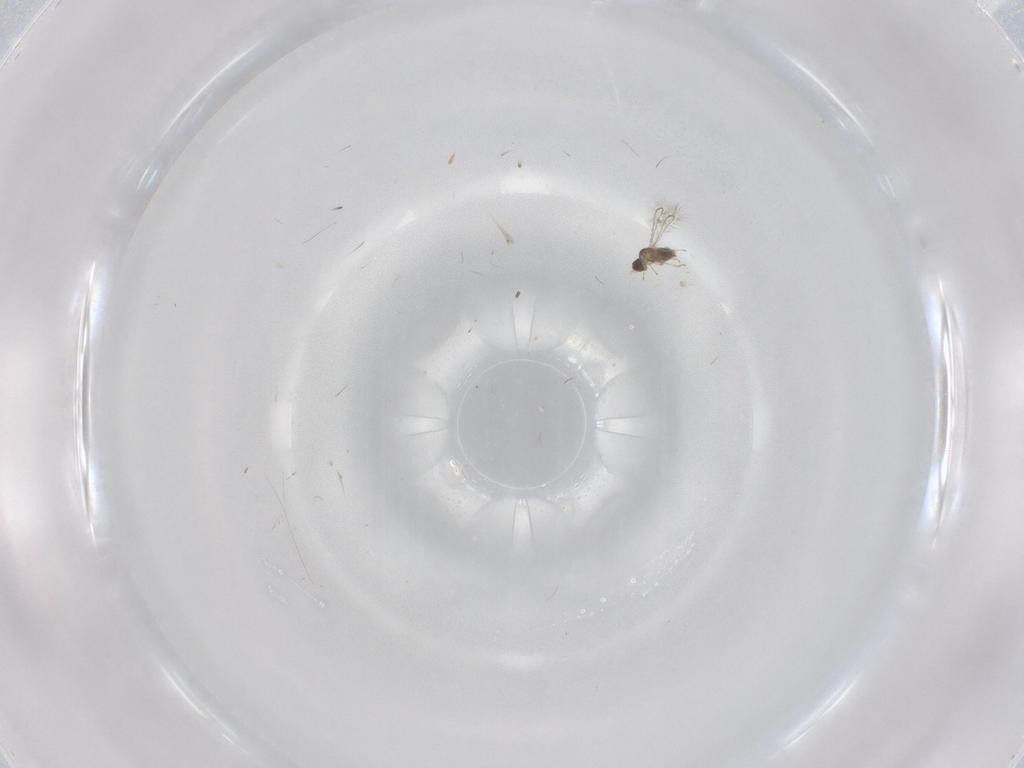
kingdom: Animalia
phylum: Arthropoda
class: Insecta
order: Diptera
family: Cecidomyiidae
